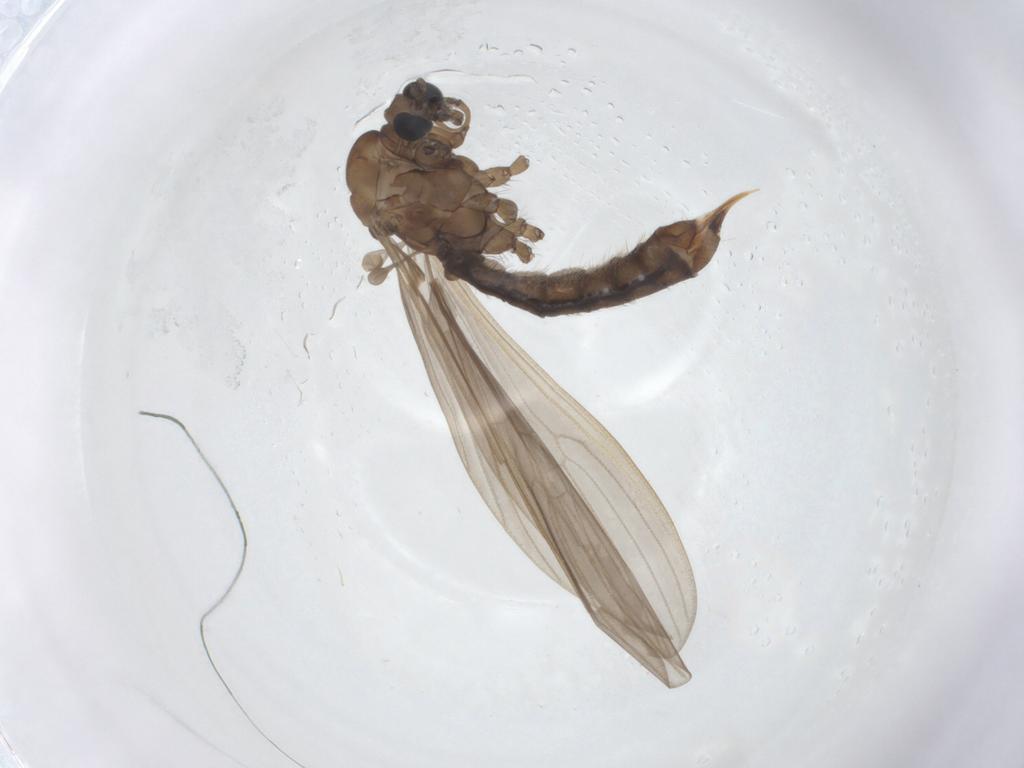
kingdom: Animalia
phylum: Arthropoda
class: Insecta
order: Diptera
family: Limoniidae
